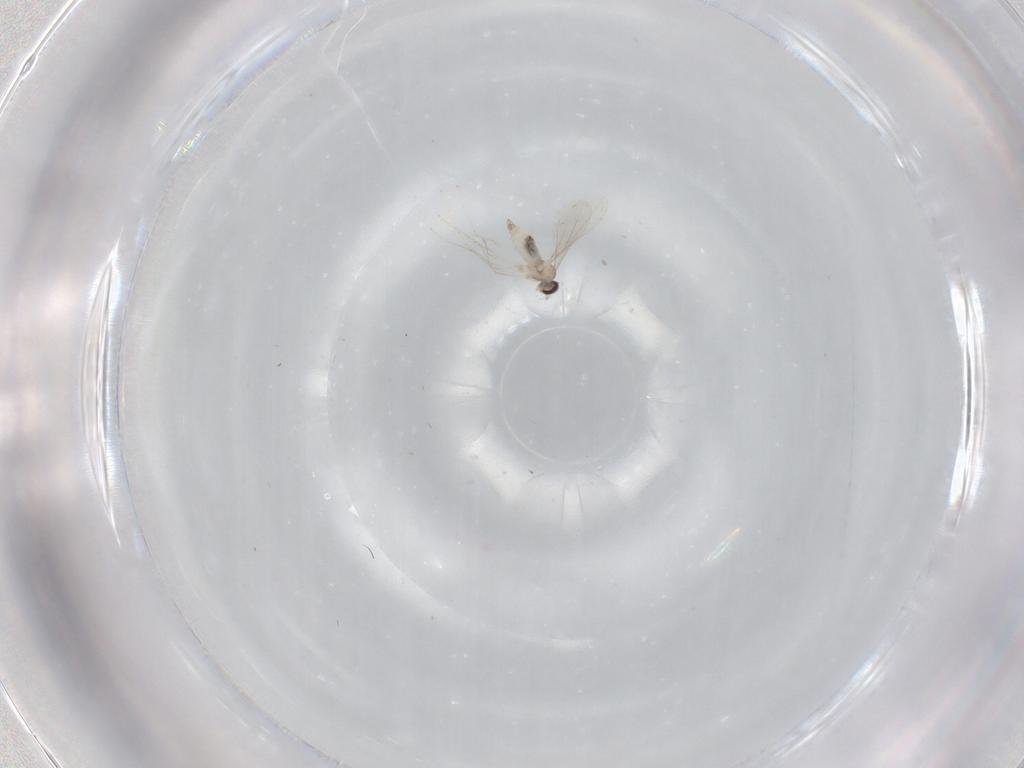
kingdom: Animalia
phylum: Arthropoda
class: Insecta
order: Diptera
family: Cecidomyiidae
